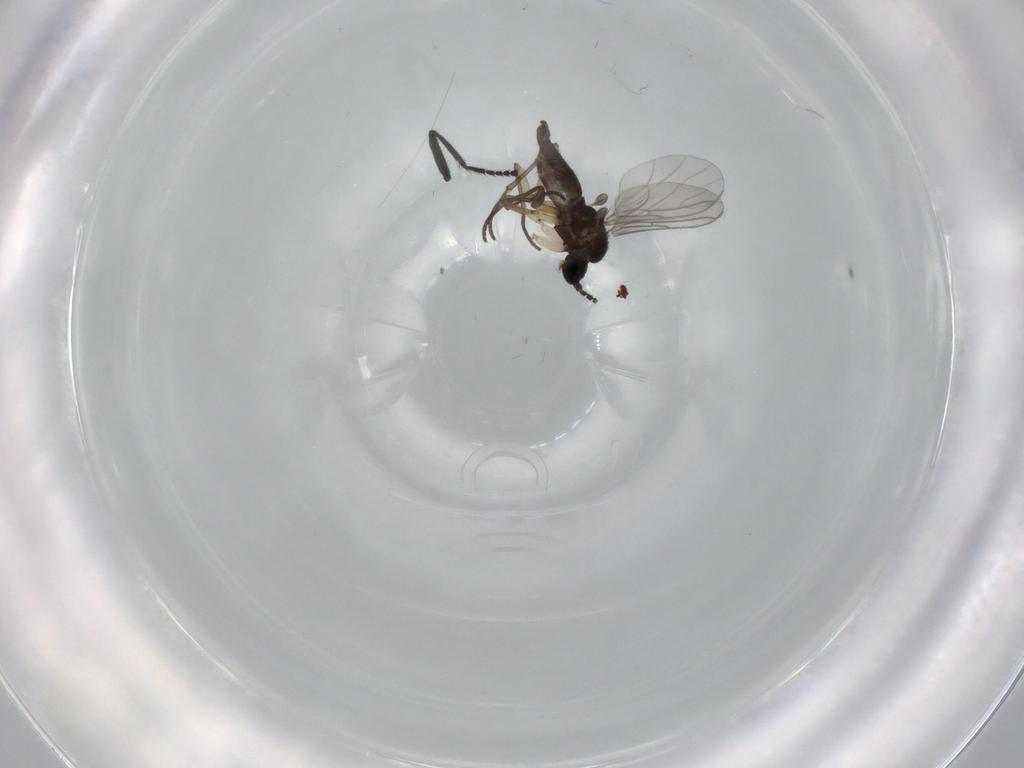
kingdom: Animalia
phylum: Arthropoda
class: Insecta
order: Diptera
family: Sciaridae
